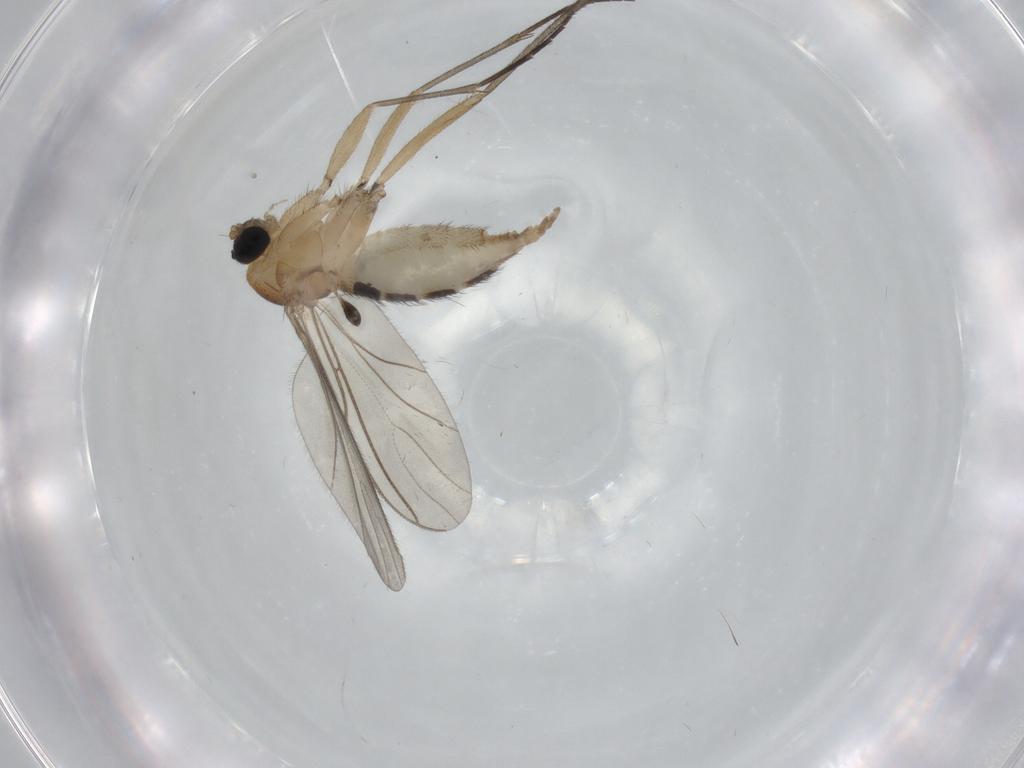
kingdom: Animalia
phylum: Arthropoda
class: Insecta
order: Diptera
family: Sciaridae
